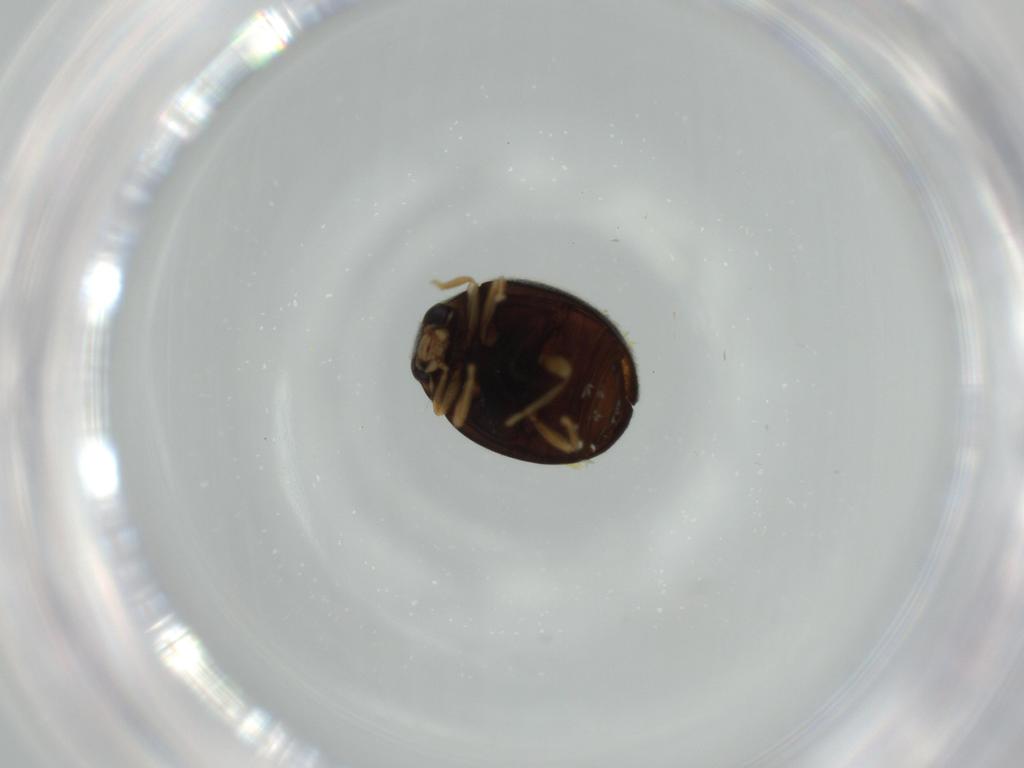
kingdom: Animalia
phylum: Arthropoda
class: Insecta
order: Coleoptera
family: Coccinellidae
